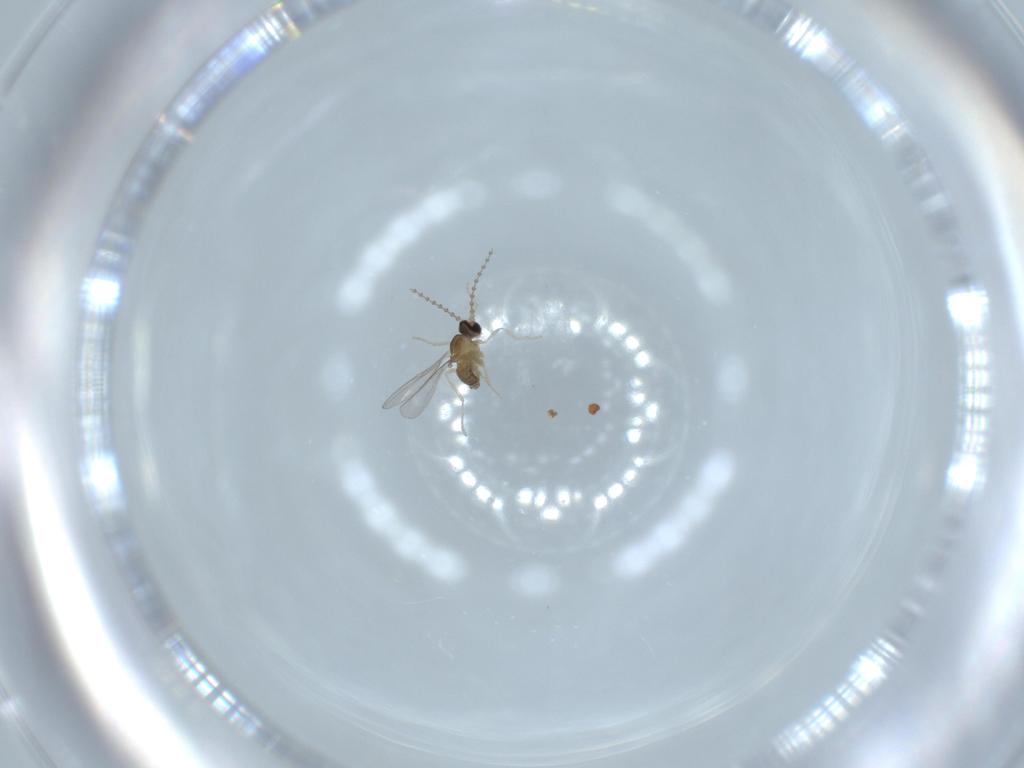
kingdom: Animalia
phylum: Arthropoda
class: Insecta
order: Diptera
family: Cecidomyiidae
